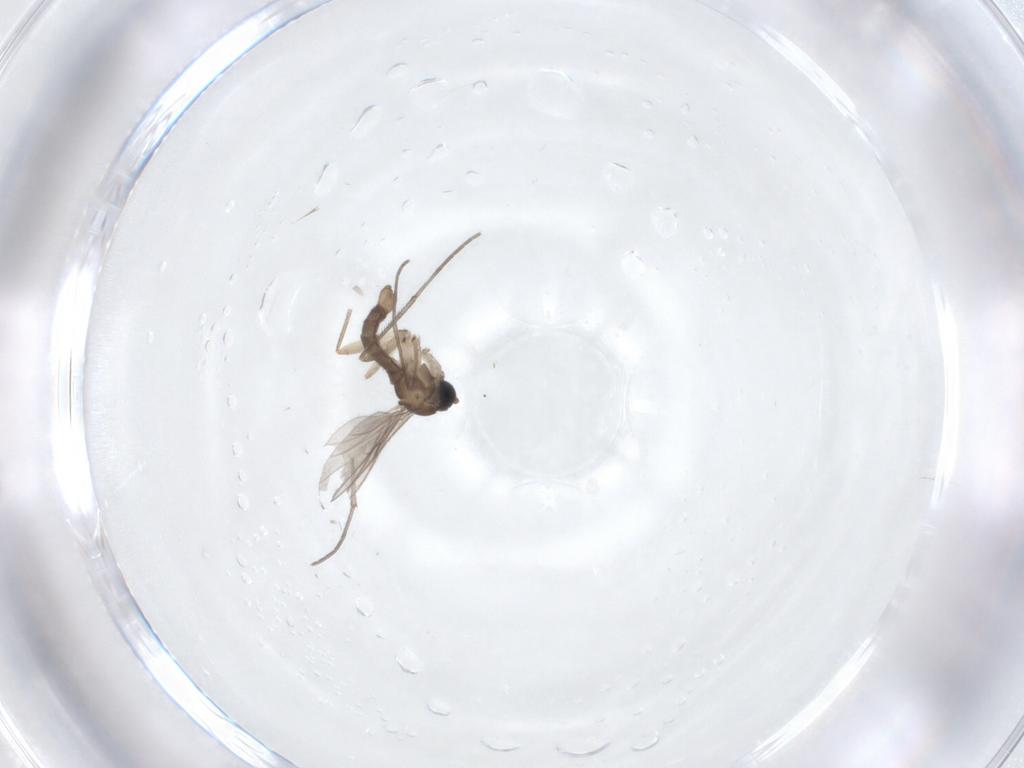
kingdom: Animalia
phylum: Arthropoda
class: Insecta
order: Diptera
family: Sciaridae
